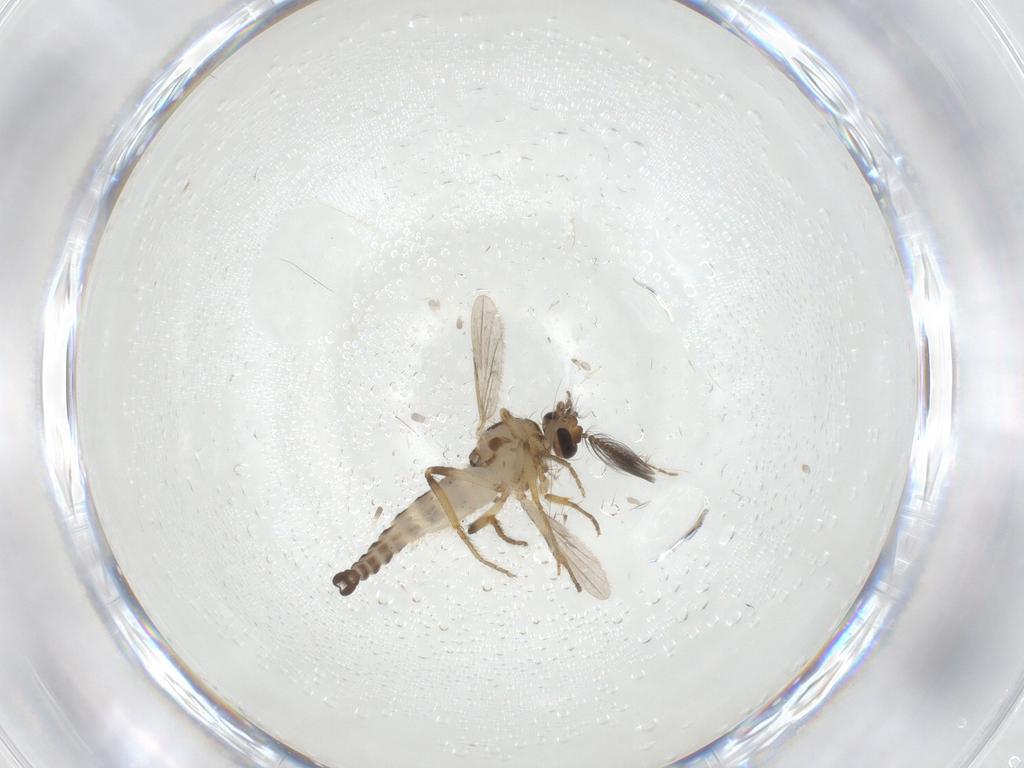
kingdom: Animalia
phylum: Arthropoda
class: Insecta
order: Diptera
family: Ceratopogonidae
